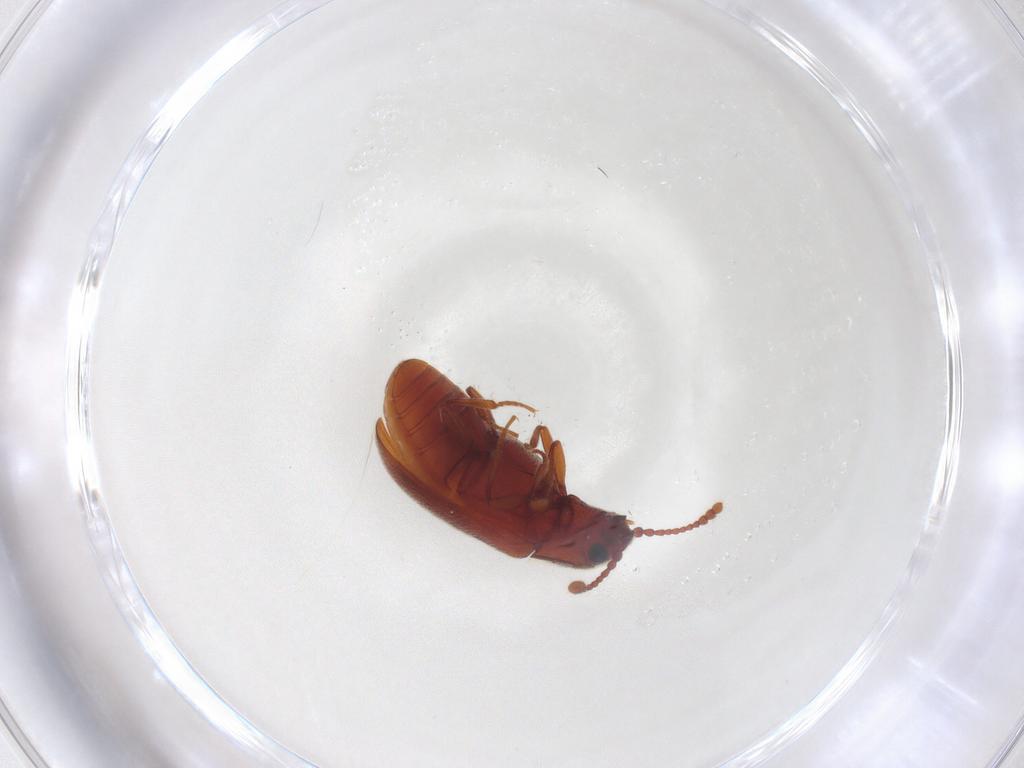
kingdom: Animalia
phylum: Arthropoda
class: Insecta
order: Coleoptera
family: Cryptophagidae
